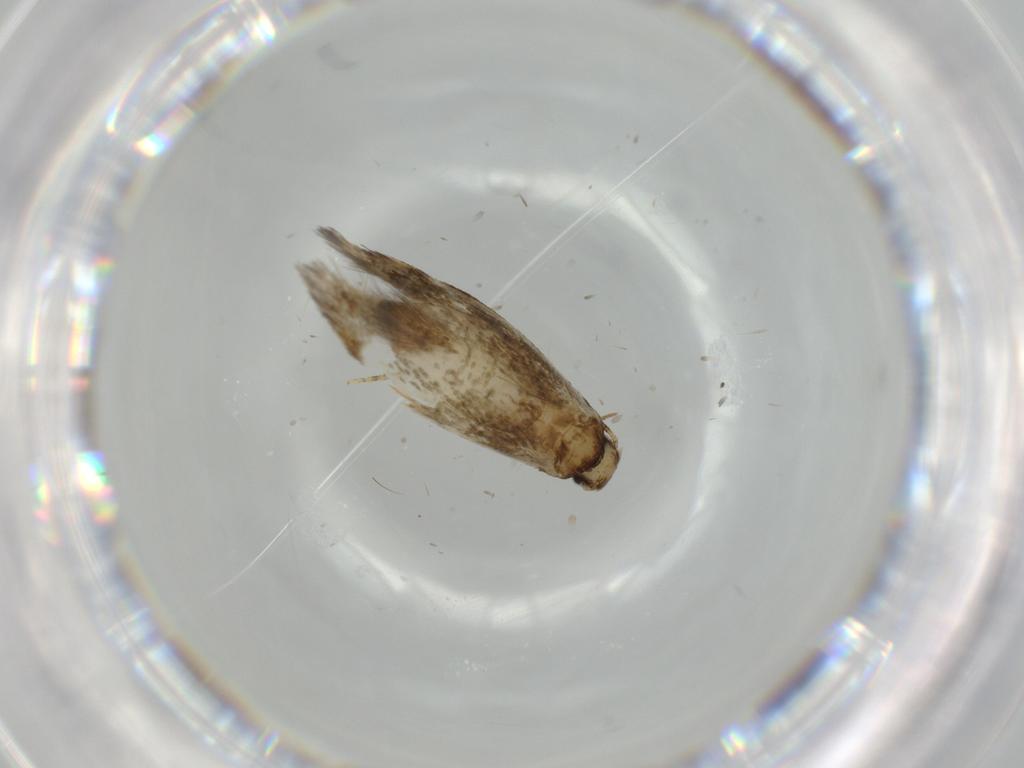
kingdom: Animalia
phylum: Arthropoda
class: Insecta
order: Lepidoptera
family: Tineidae
